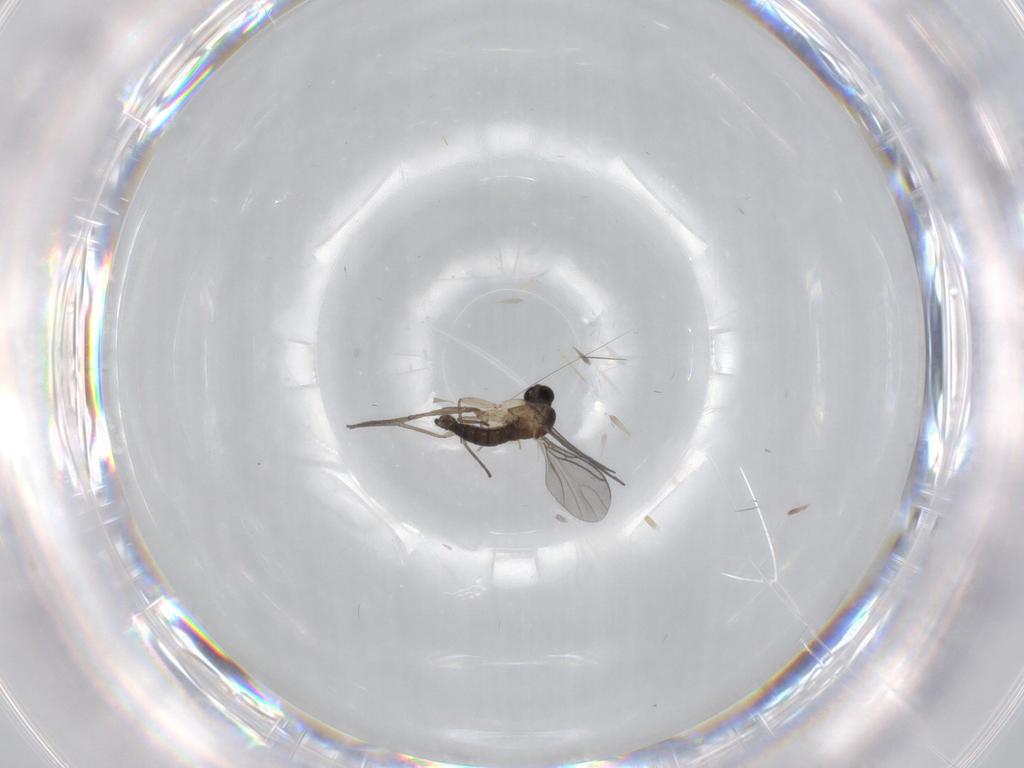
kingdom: Animalia
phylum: Arthropoda
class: Insecta
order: Diptera
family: Sciaridae
